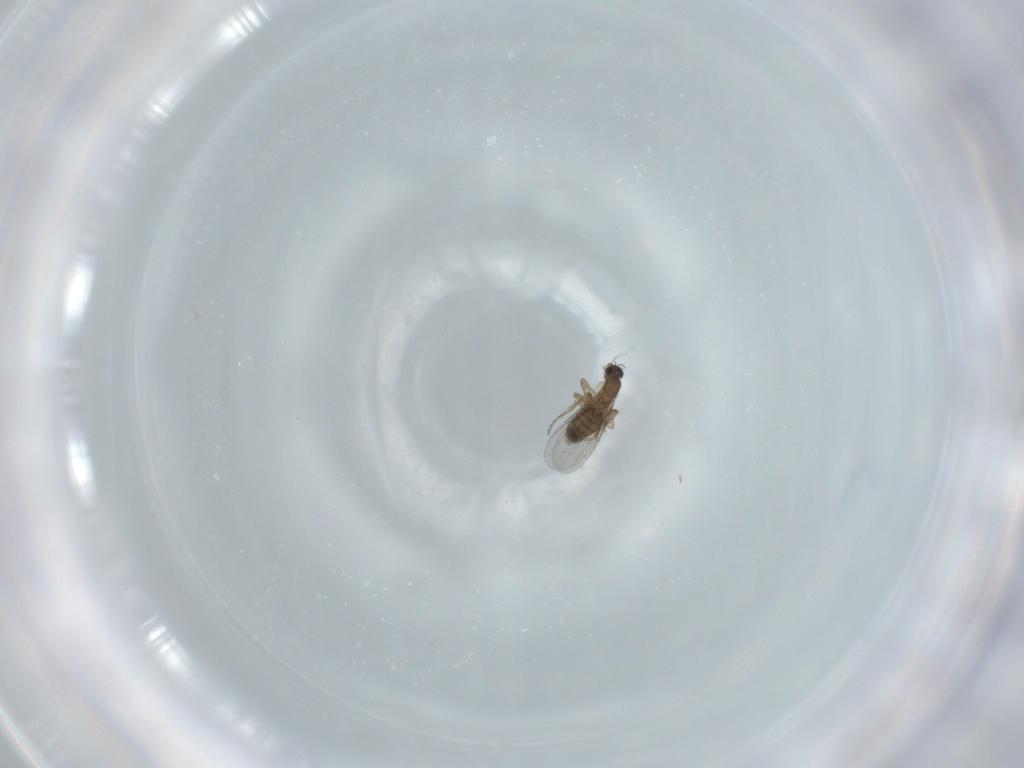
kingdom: Animalia
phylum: Arthropoda
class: Insecta
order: Diptera
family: Phoridae
